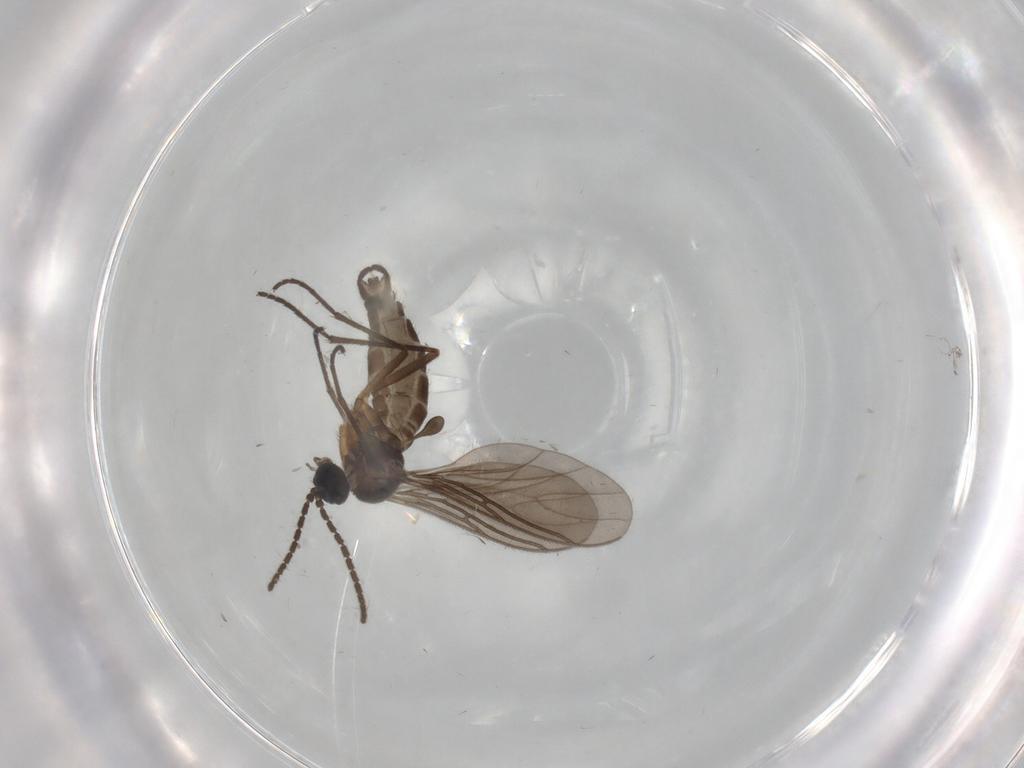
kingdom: Animalia
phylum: Arthropoda
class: Insecta
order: Diptera
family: Sciaridae
